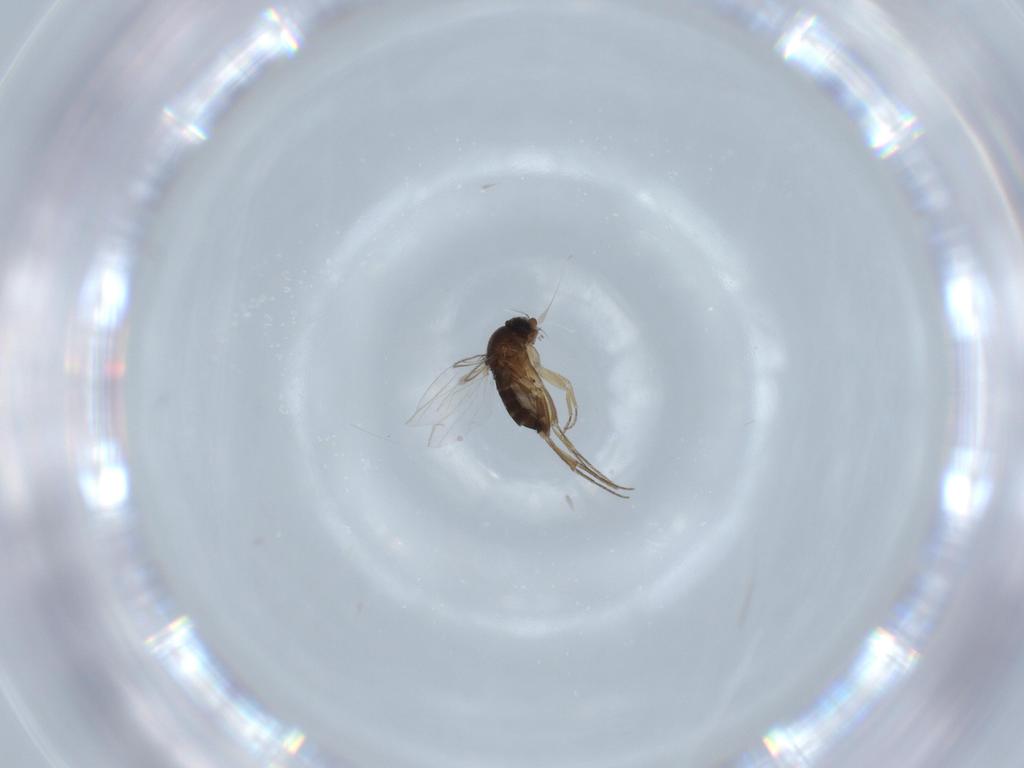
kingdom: Animalia
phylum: Arthropoda
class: Insecta
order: Diptera
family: Phoridae
